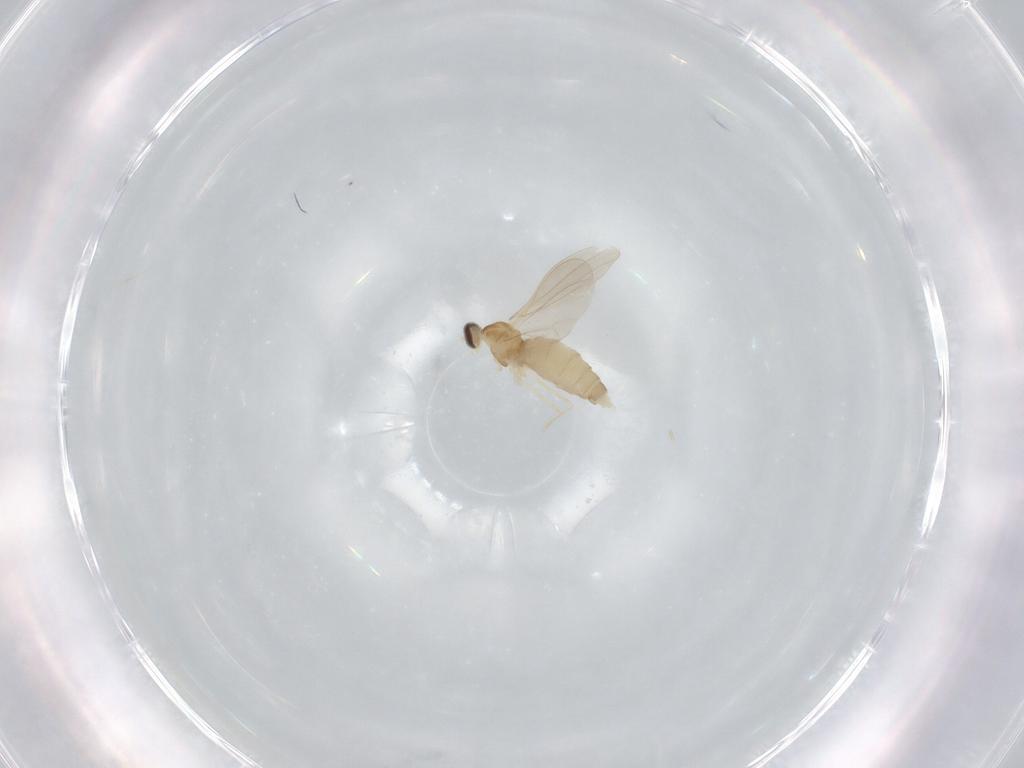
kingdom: Animalia
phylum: Arthropoda
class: Insecta
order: Diptera
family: Cecidomyiidae
